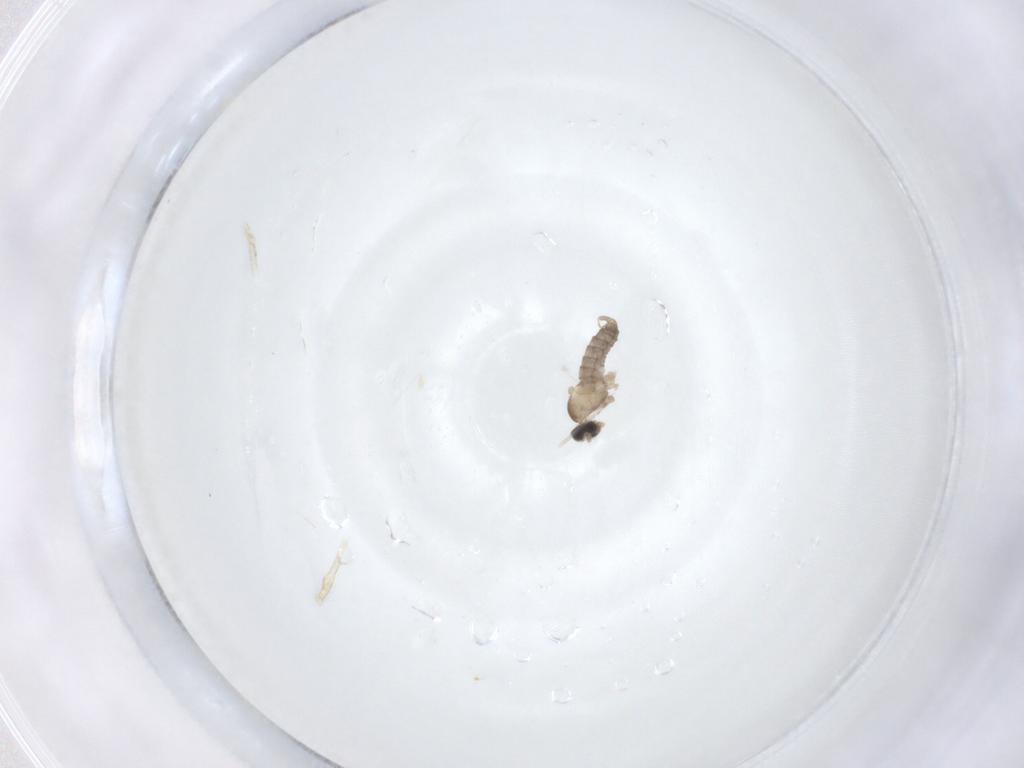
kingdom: Animalia
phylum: Arthropoda
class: Insecta
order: Diptera
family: Cecidomyiidae
